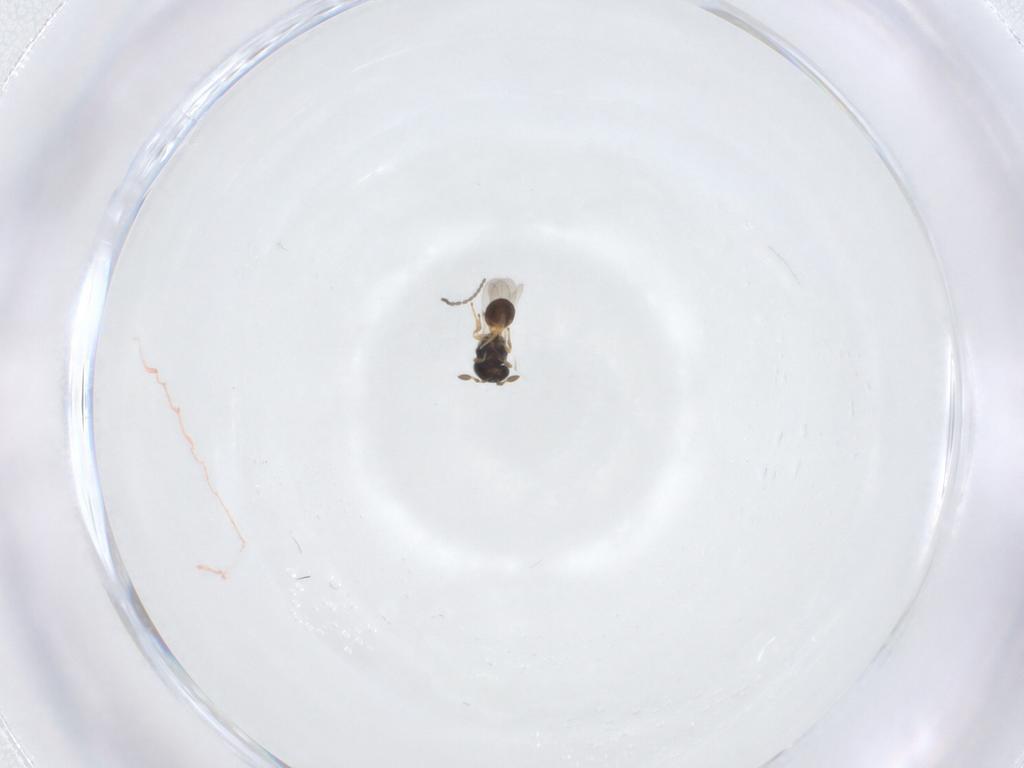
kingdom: Animalia
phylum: Arthropoda
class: Insecta
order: Hymenoptera
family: Scelionidae
